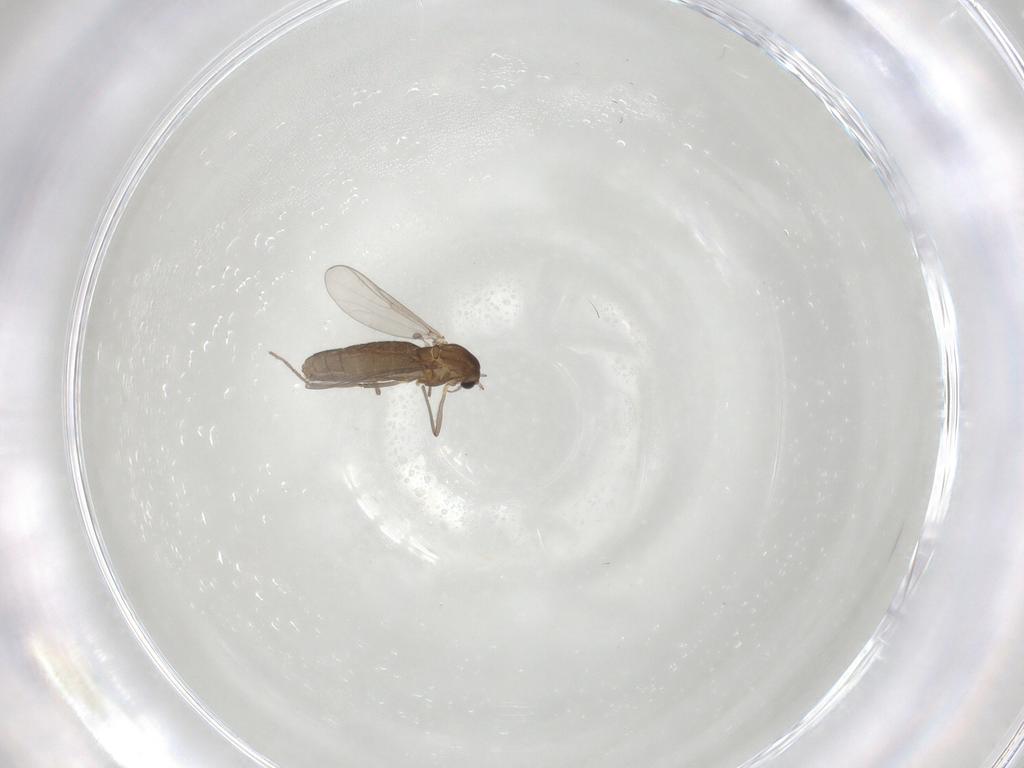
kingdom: Animalia
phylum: Arthropoda
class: Insecta
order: Diptera
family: Chironomidae
